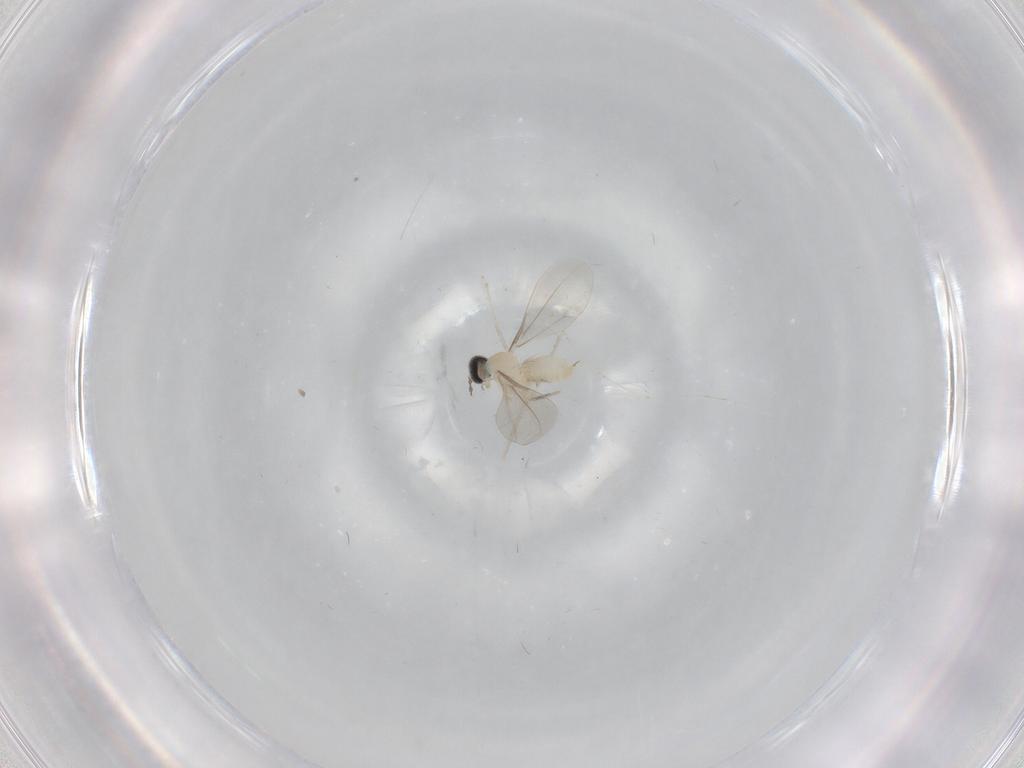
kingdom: Animalia
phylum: Arthropoda
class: Insecta
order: Diptera
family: Cecidomyiidae
